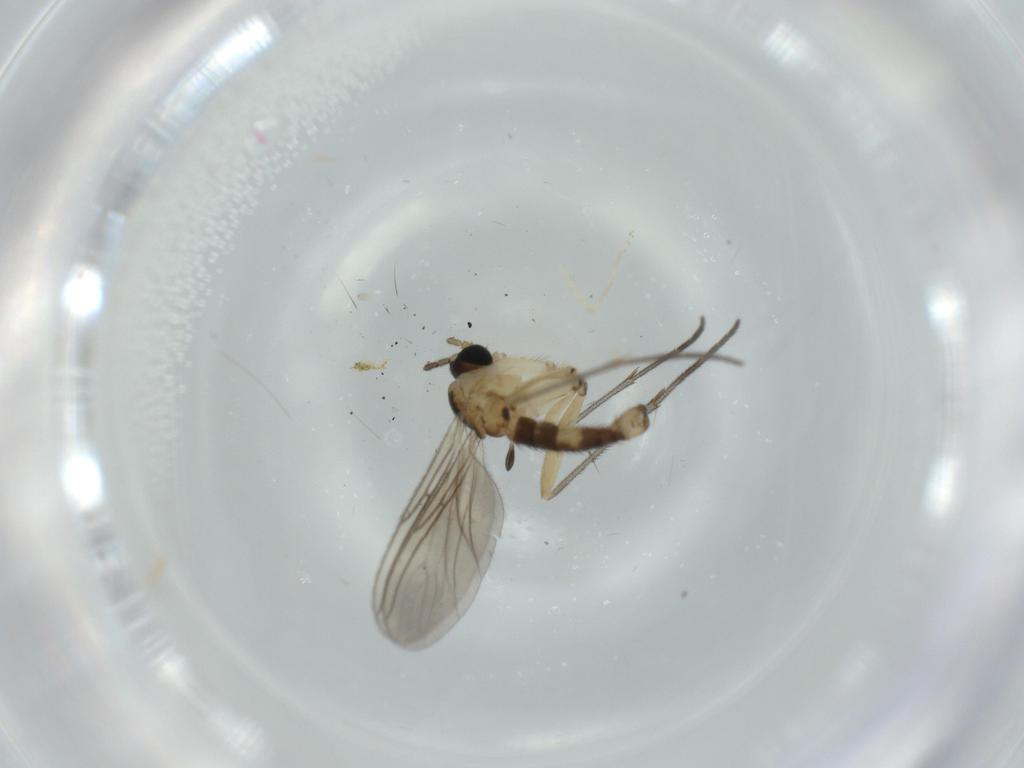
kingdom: Animalia
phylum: Arthropoda
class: Insecta
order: Diptera
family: Sciaridae
